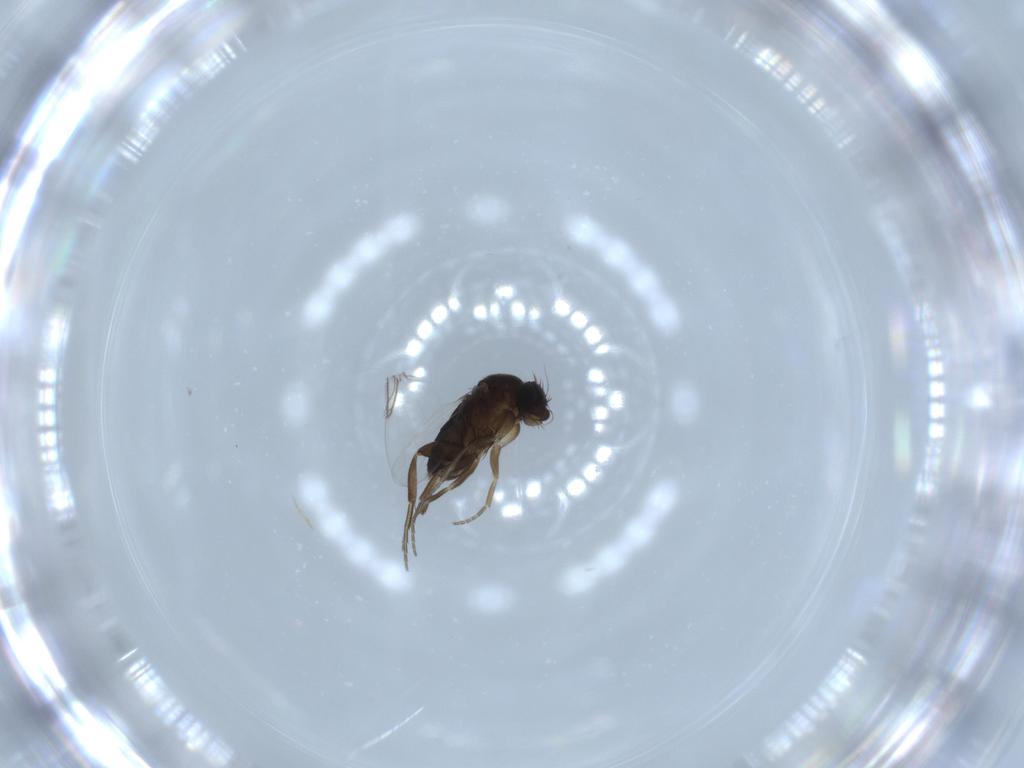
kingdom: Animalia
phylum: Arthropoda
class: Insecta
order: Diptera
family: Phoridae
